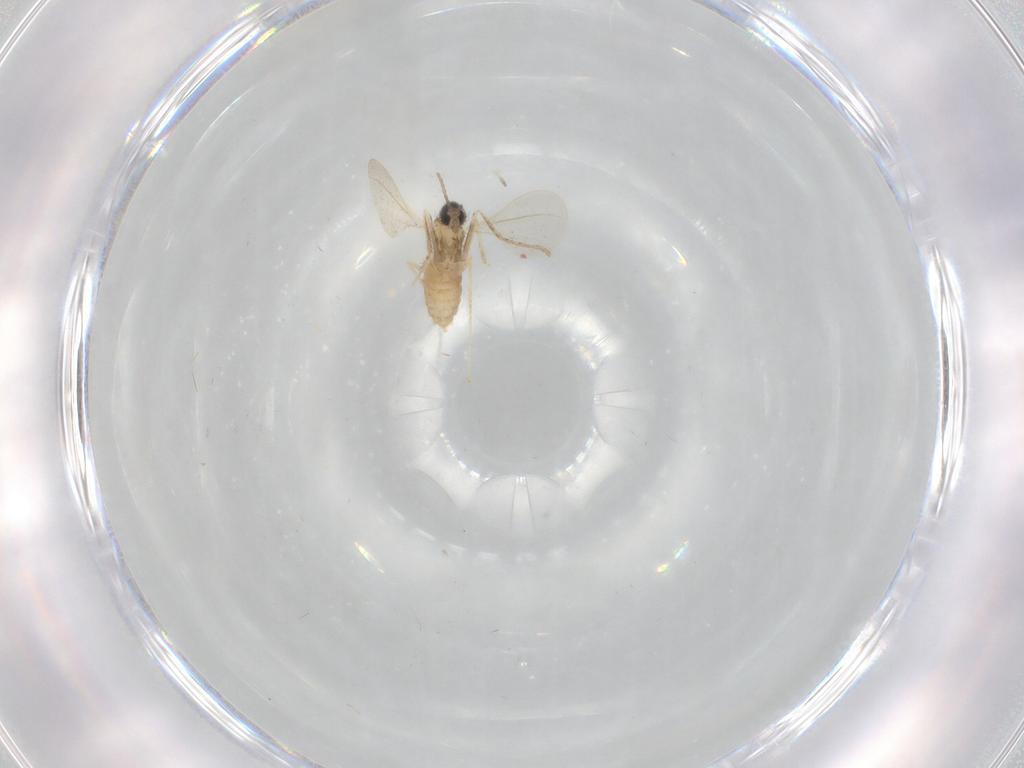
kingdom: Animalia
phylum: Arthropoda
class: Insecta
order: Diptera
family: Cecidomyiidae
